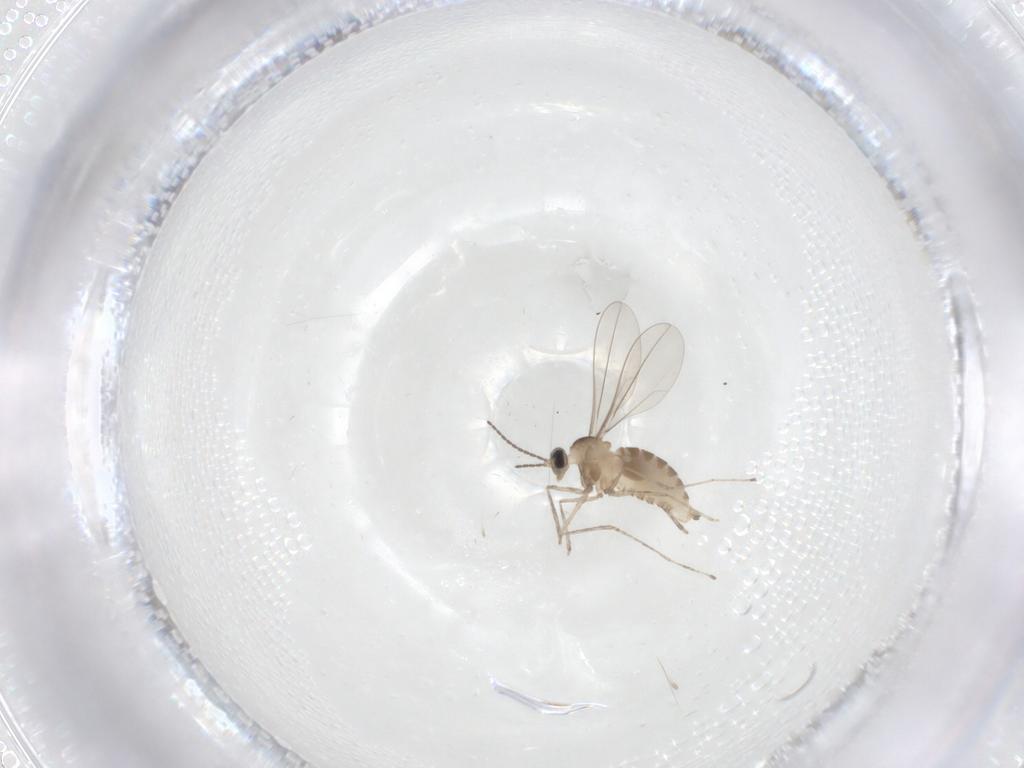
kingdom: Animalia
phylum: Arthropoda
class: Insecta
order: Diptera
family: Cecidomyiidae
